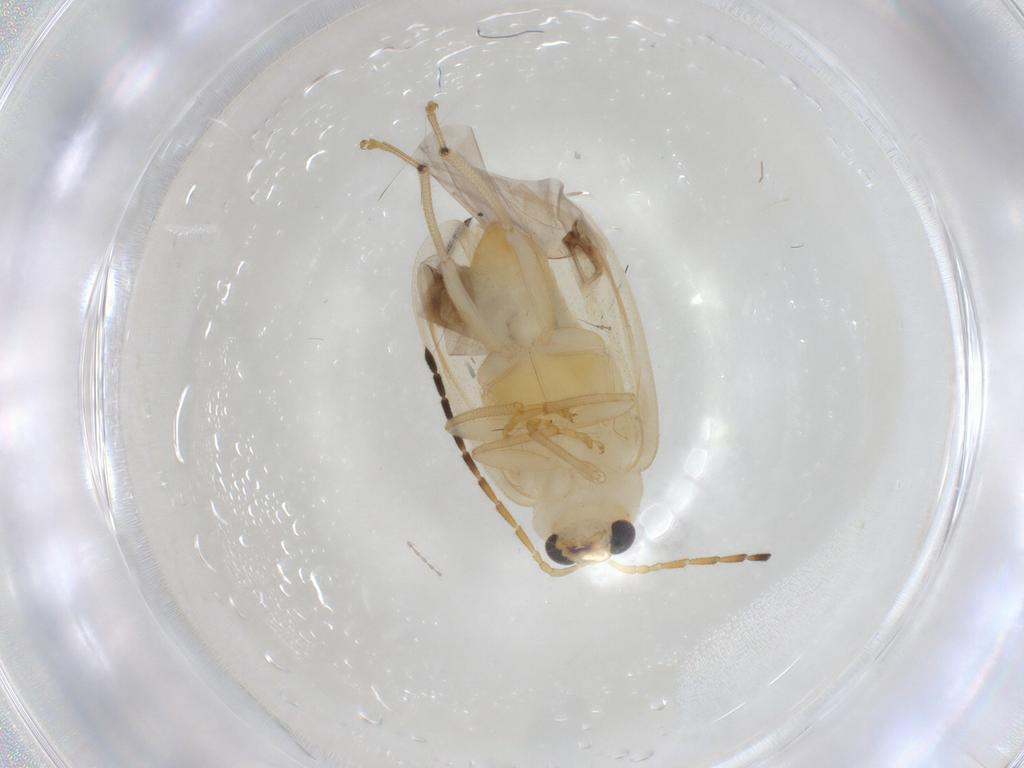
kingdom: Animalia
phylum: Arthropoda
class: Insecta
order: Coleoptera
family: Chrysomelidae
